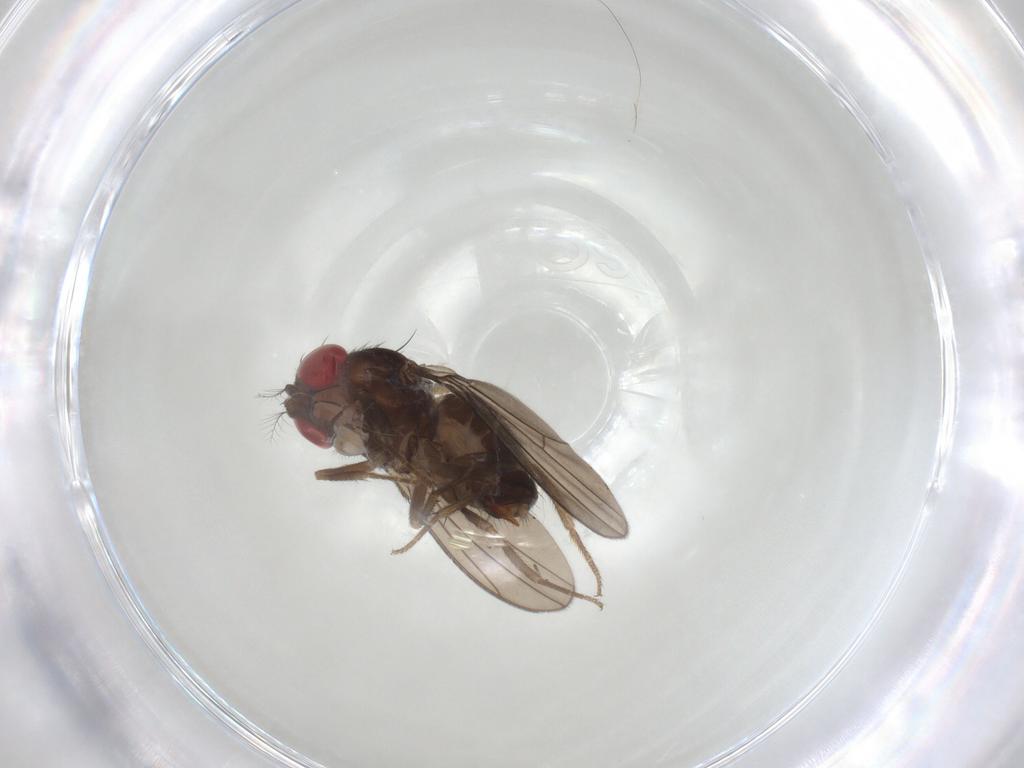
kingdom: Animalia
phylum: Arthropoda
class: Insecta
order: Diptera
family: Drosophilidae
